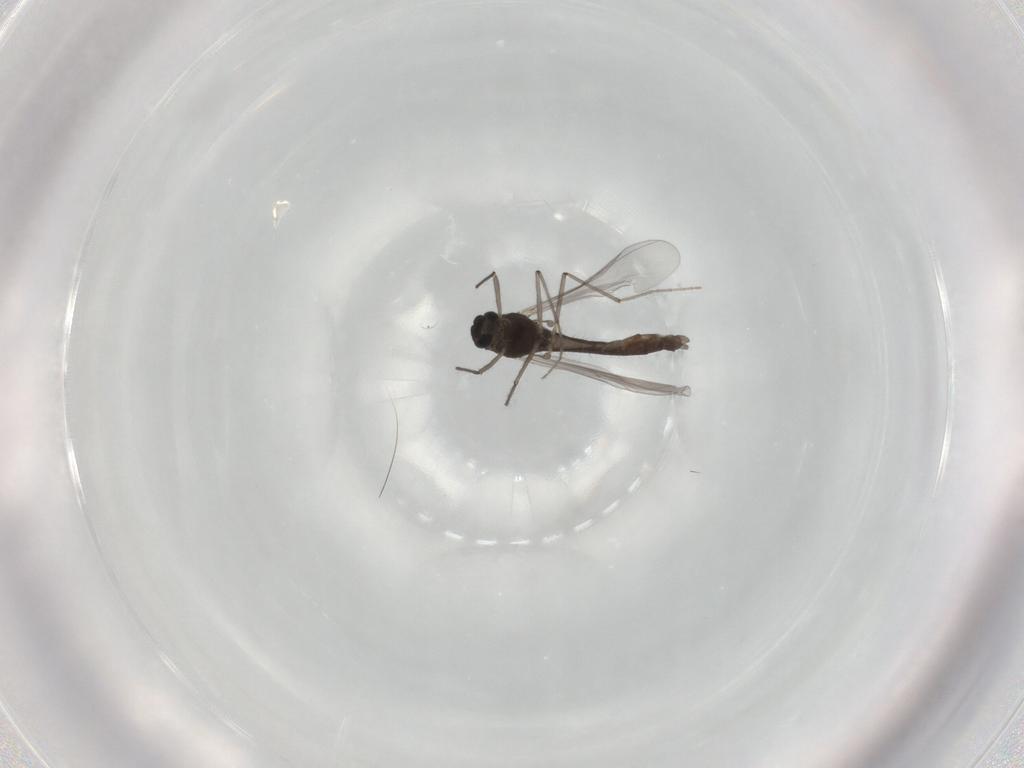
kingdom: Animalia
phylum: Arthropoda
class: Insecta
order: Diptera
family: Chironomidae
